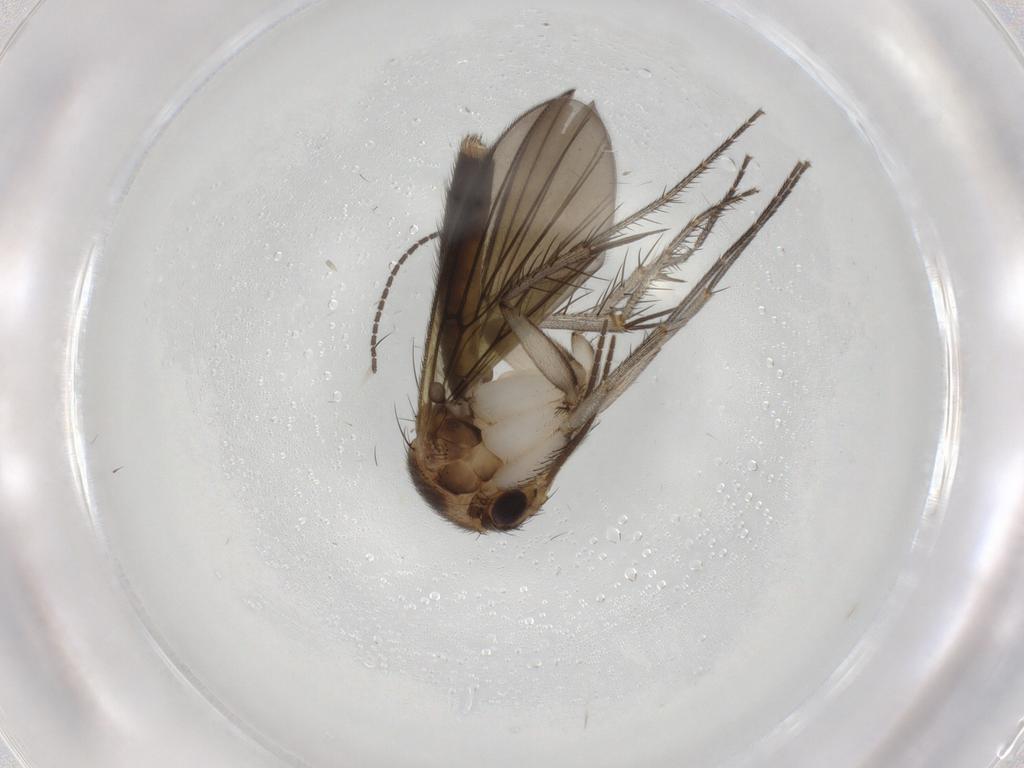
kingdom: Animalia
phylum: Arthropoda
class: Insecta
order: Diptera
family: Mycetophilidae
